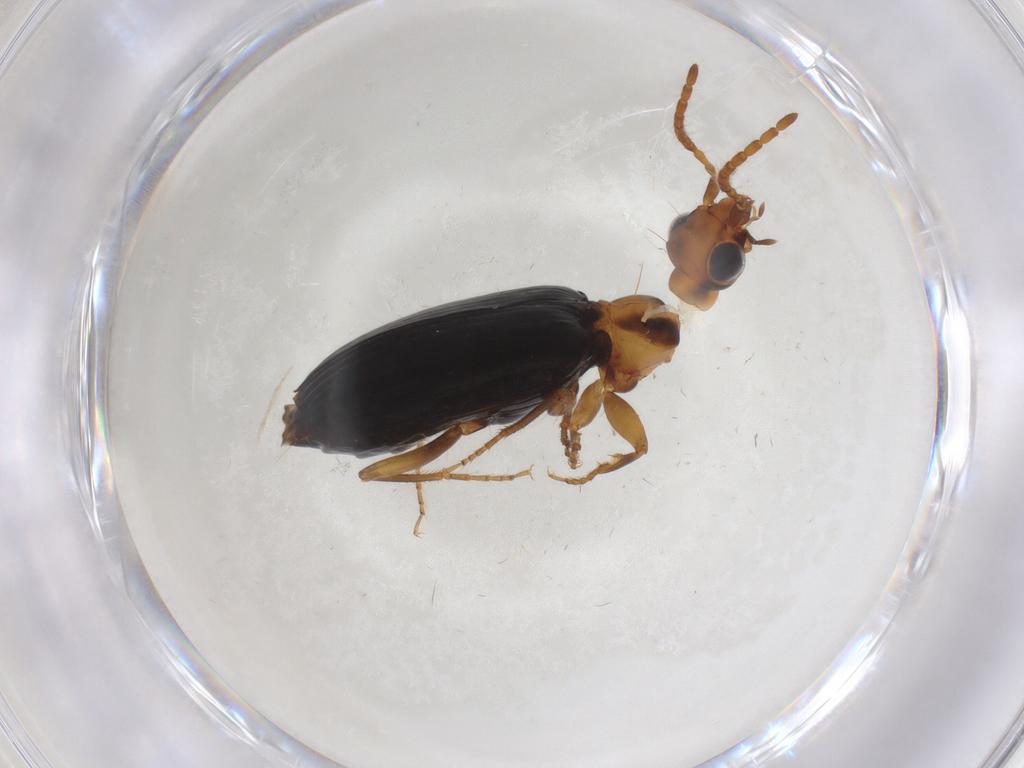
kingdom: Animalia
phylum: Arthropoda
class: Insecta
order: Coleoptera
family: Carabidae
